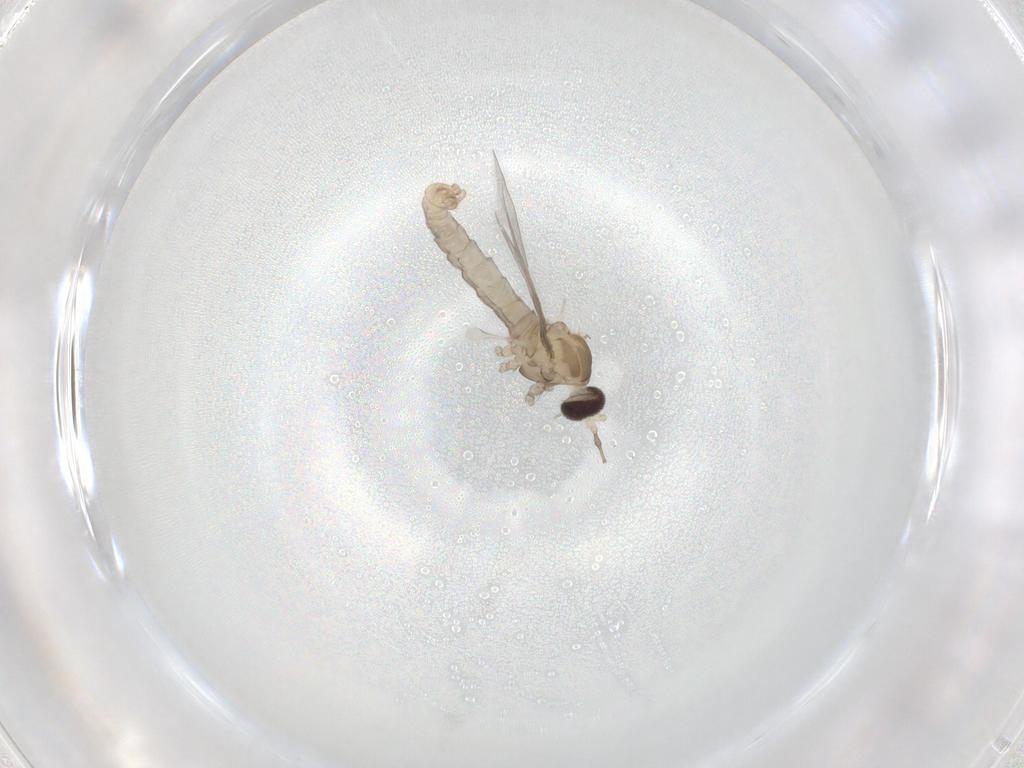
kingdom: Animalia
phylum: Arthropoda
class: Insecta
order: Diptera
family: Cecidomyiidae
